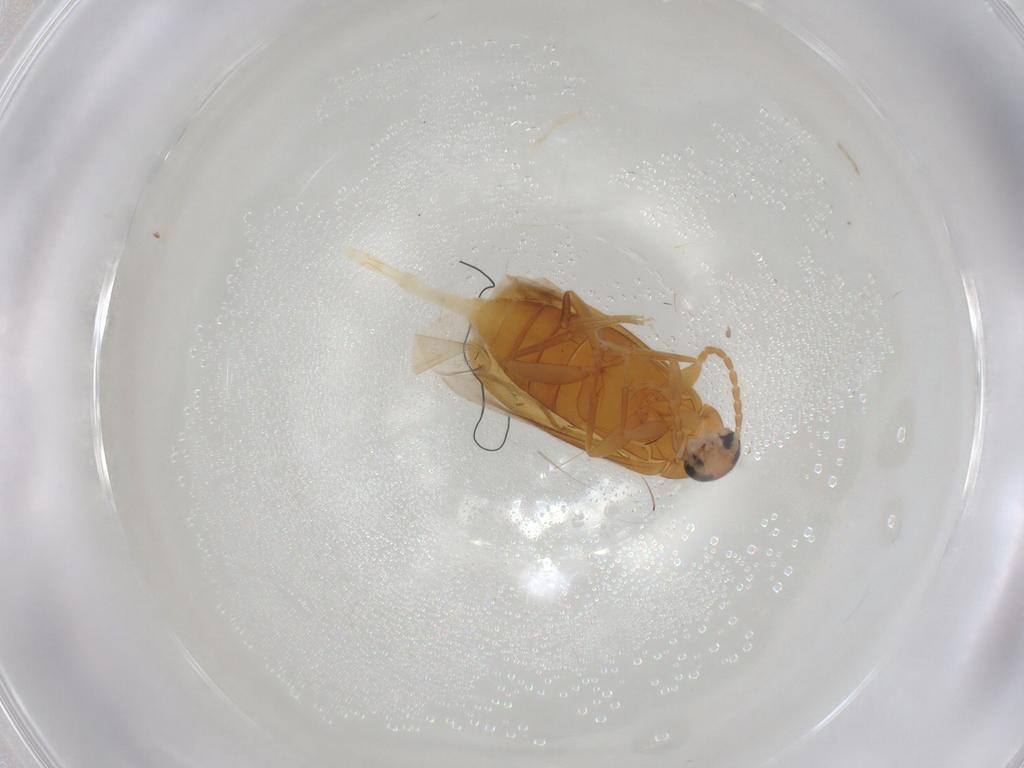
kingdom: Animalia
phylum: Arthropoda
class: Insecta
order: Coleoptera
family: Scraptiidae
